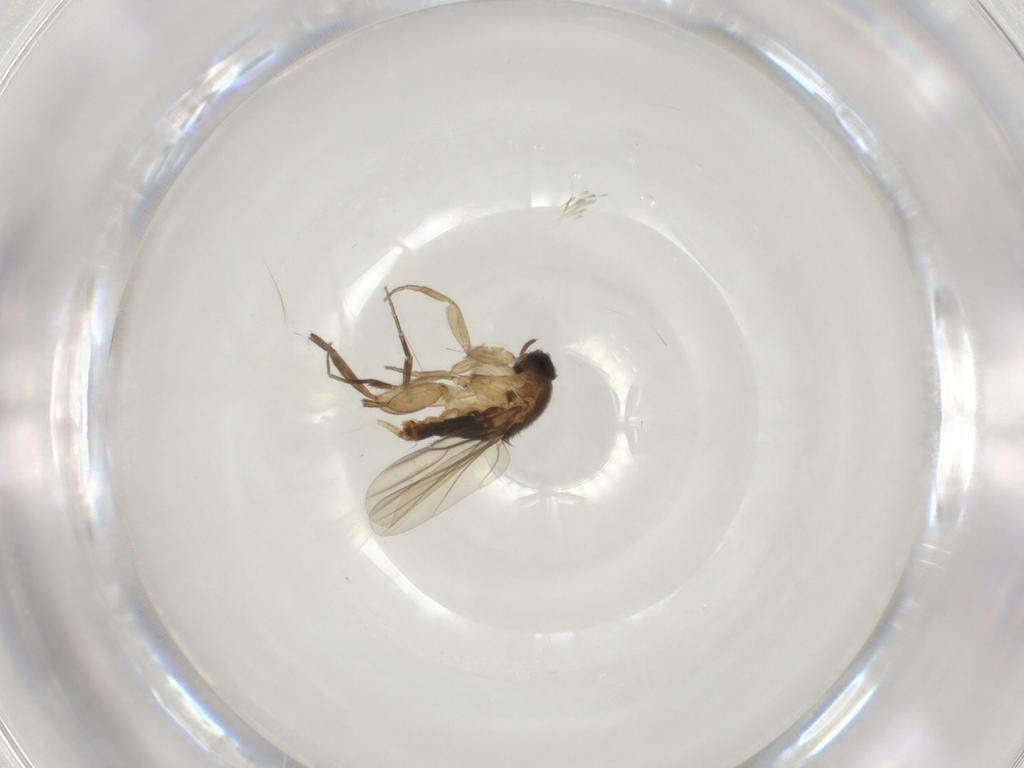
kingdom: Animalia
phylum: Arthropoda
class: Insecta
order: Diptera
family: Phoridae
